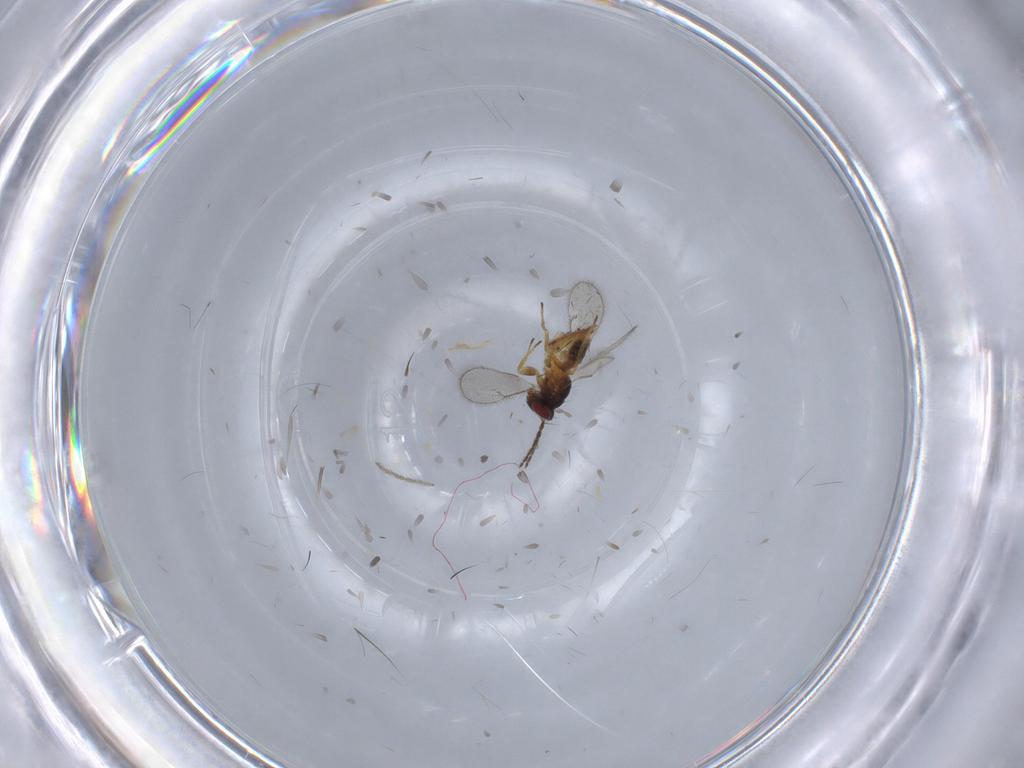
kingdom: Animalia
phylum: Arthropoda
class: Insecta
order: Hymenoptera
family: Eulophidae
